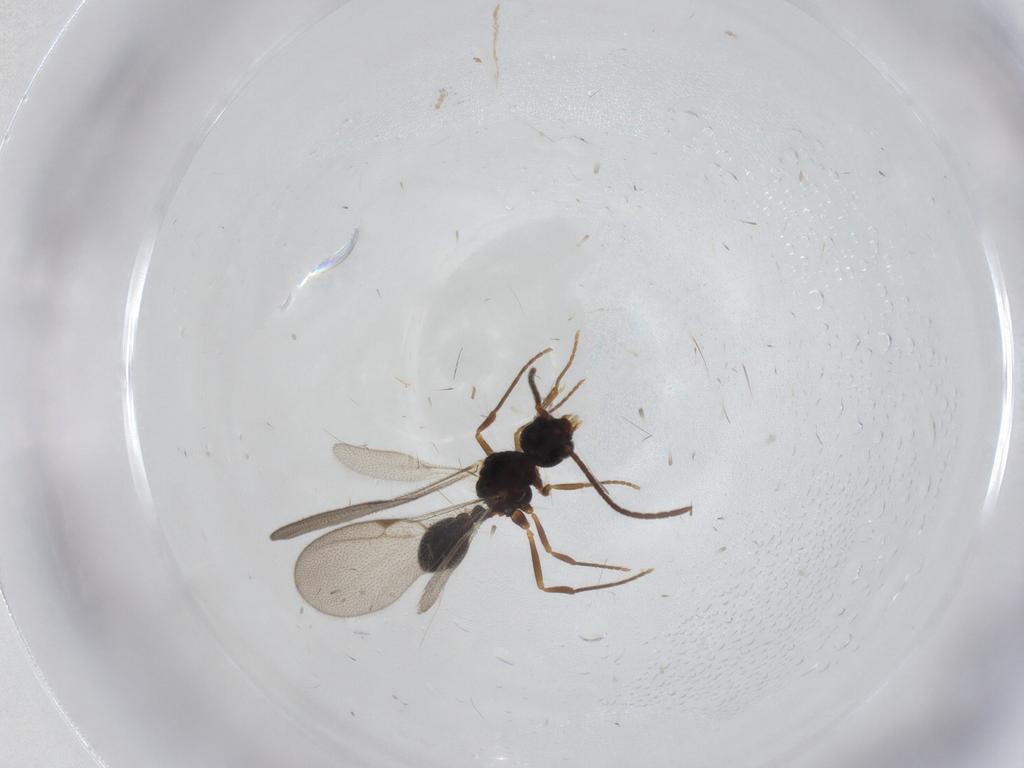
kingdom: Animalia
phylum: Arthropoda
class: Insecta
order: Hymenoptera
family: Formicidae
